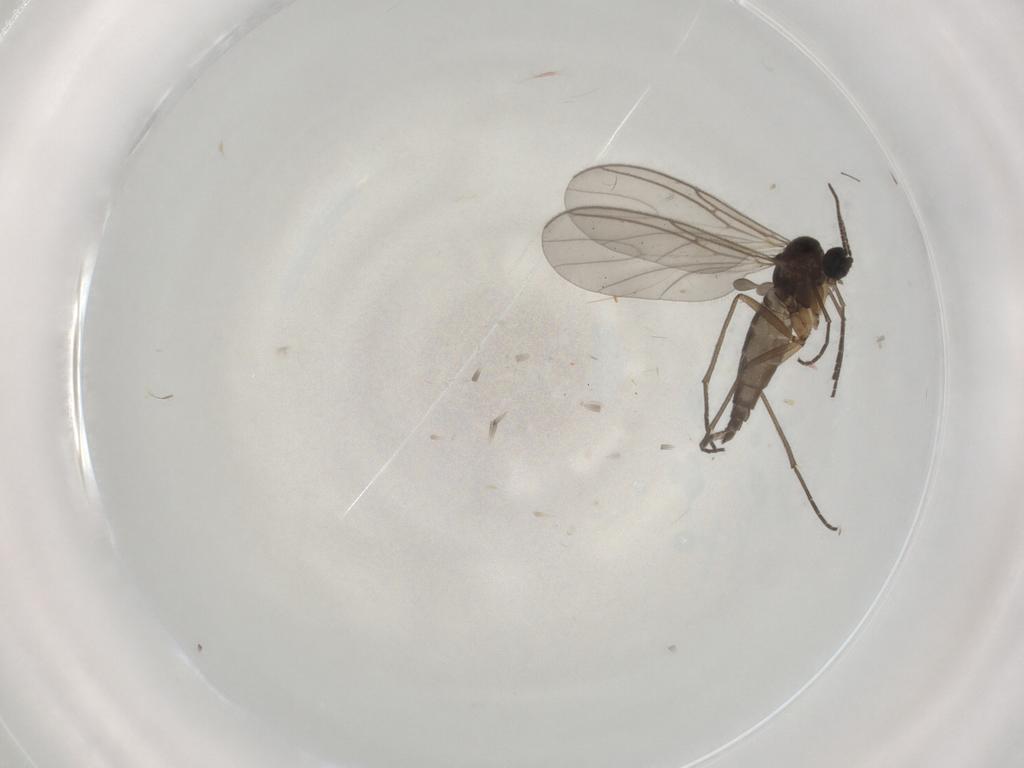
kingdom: Animalia
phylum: Arthropoda
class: Insecta
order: Diptera
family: Sciaridae
